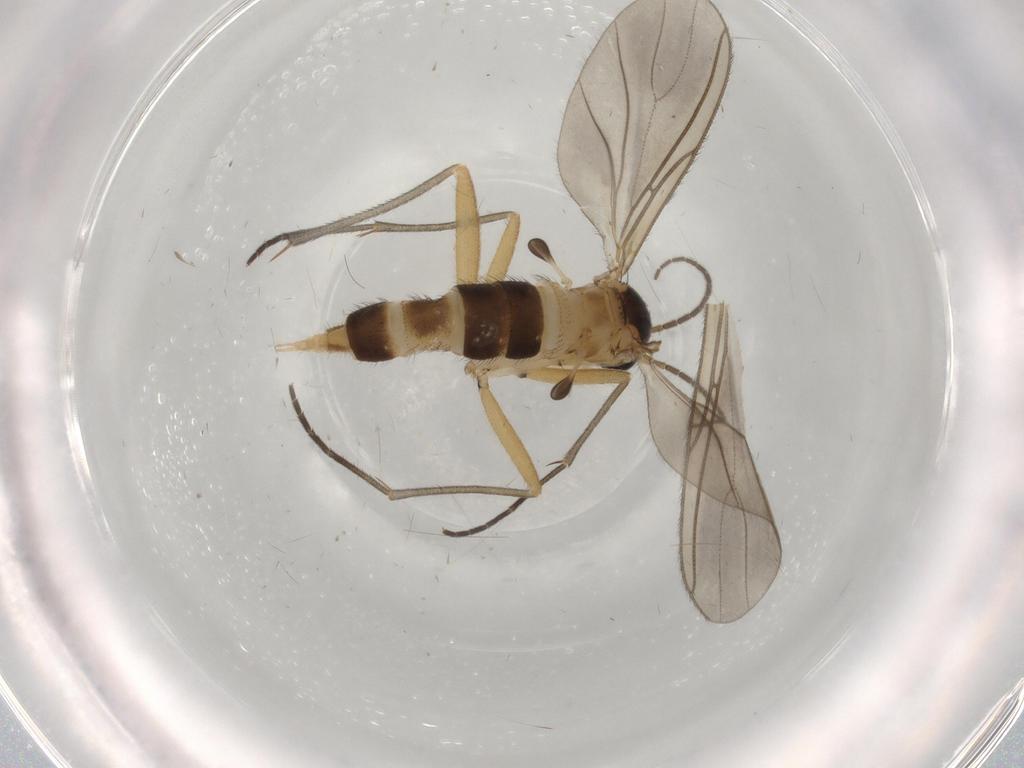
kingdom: Animalia
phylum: Arthropoda
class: Insecta
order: Diptera
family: Sciaridae
